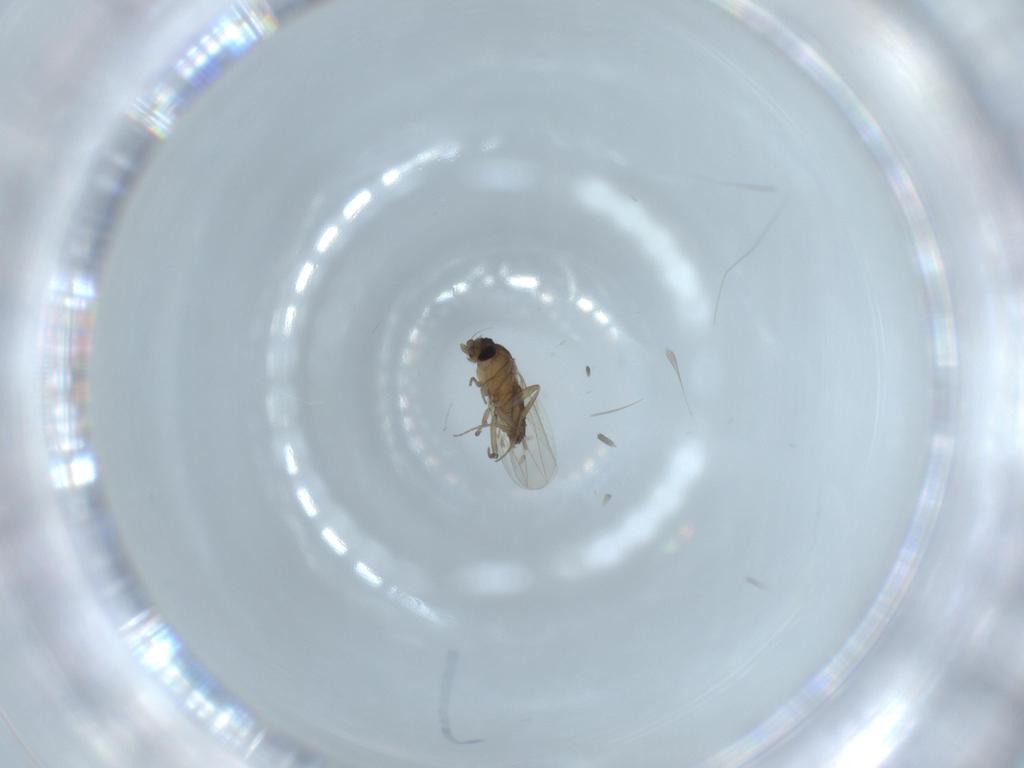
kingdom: Animalia
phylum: Arthropoda
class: Insecta
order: Diptera
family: Phoridae
